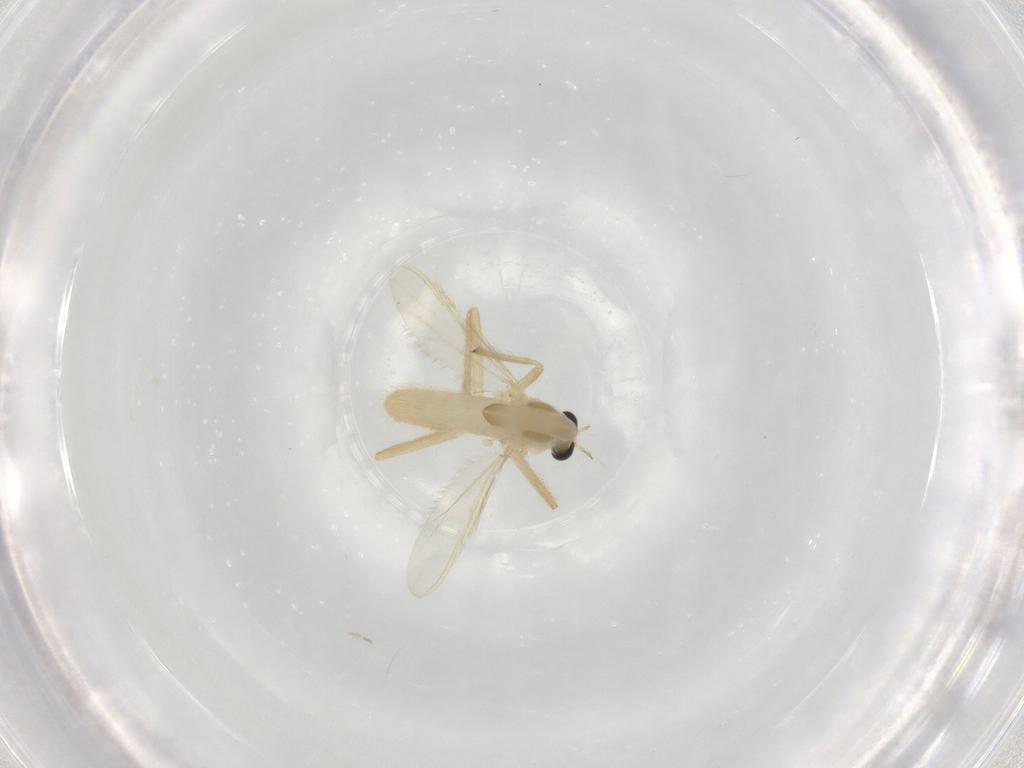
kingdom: Animalia
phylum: Arthropoda
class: Insecta
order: Diptera
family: Chironomidae
